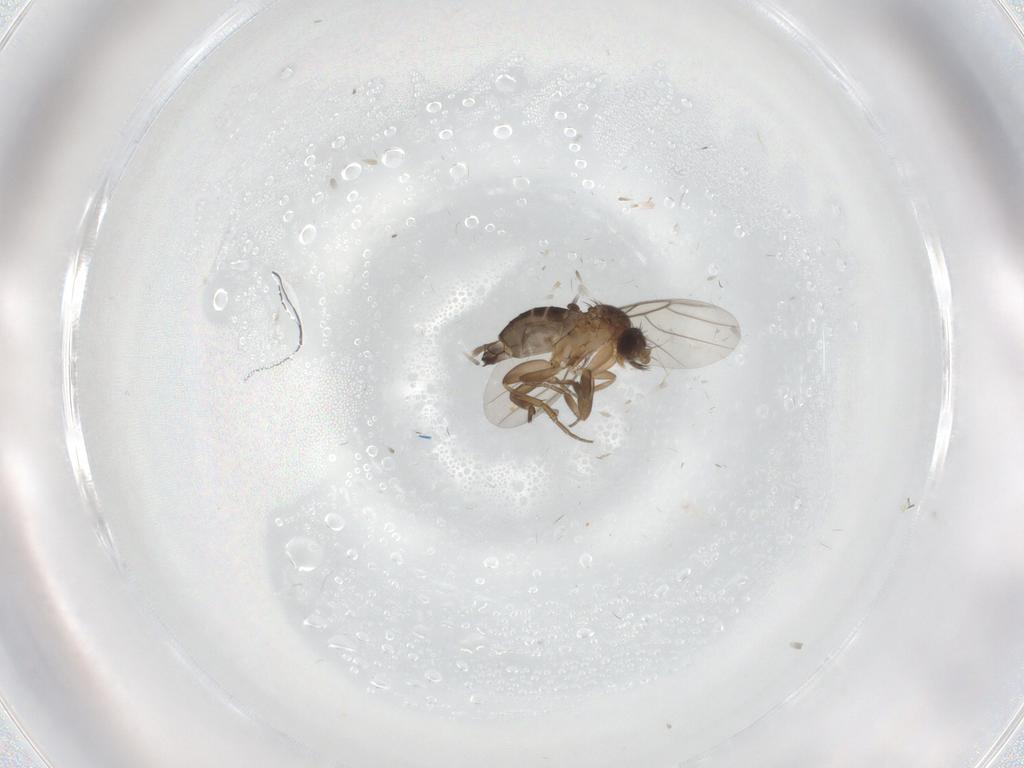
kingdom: Animalia
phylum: Arthropoda
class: Insecta
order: Diptera
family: Phoridae
